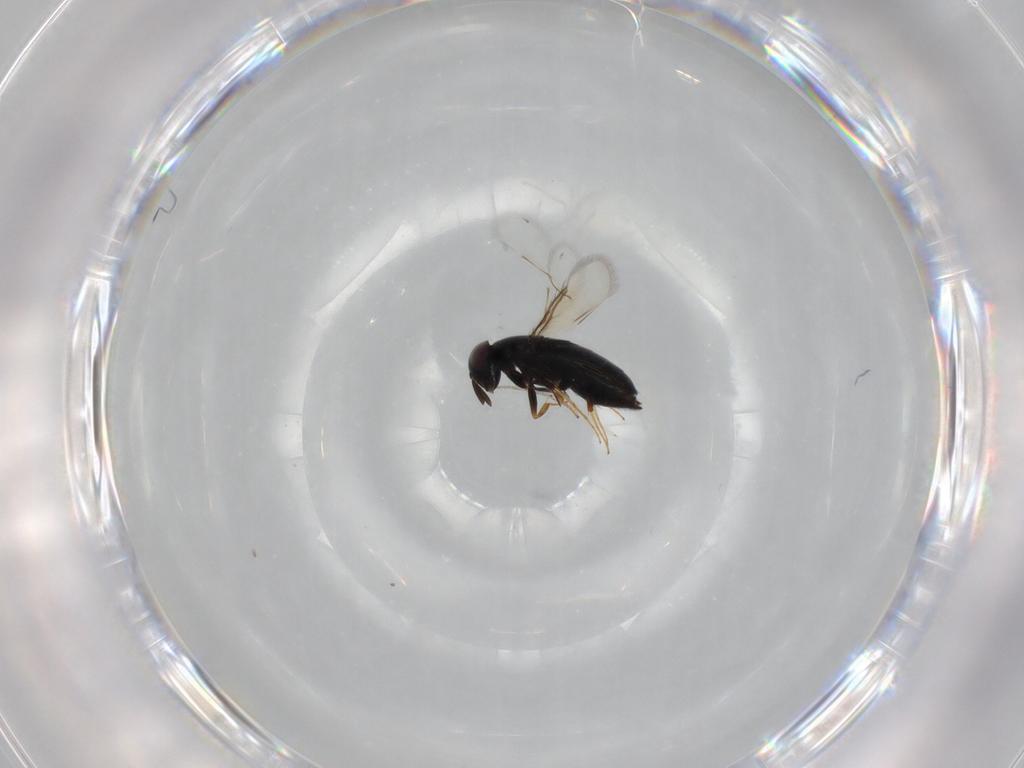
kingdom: Animalia
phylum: Arthropoda
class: Insecta
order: Hymenoptera
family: Signiphoridae
